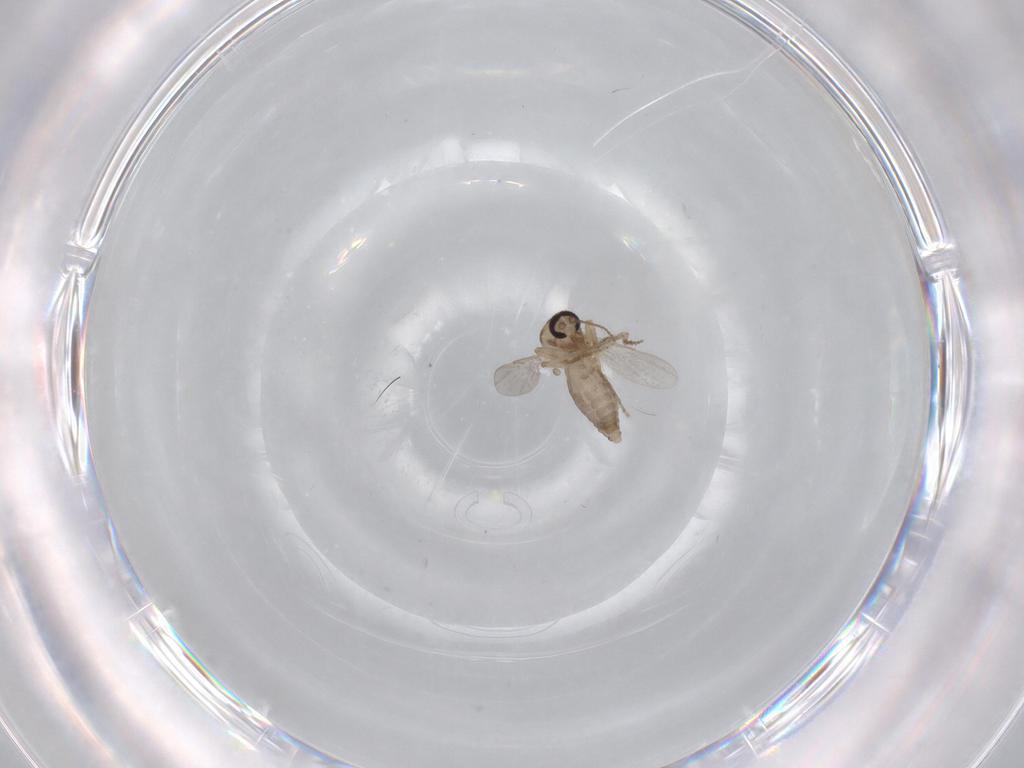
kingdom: Animalia
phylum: Arthropoda
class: Insecta
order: Diptera
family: Ceratopogonidae
